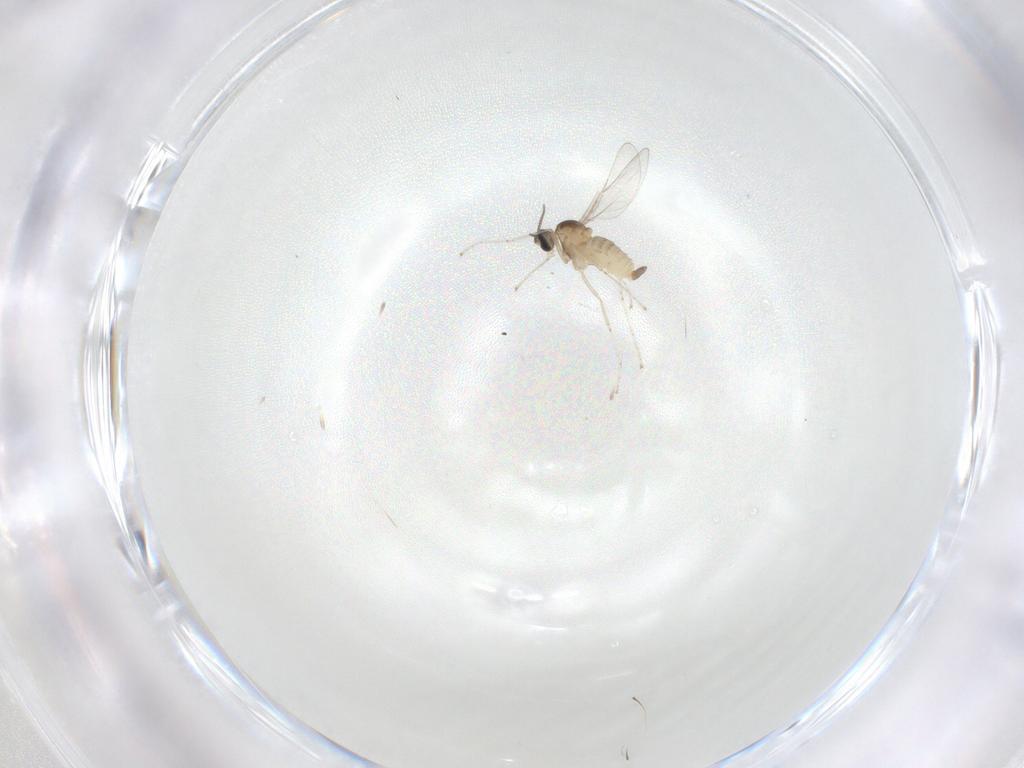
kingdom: Animalia
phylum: Arthropoda
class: Insecta
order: Diptera
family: Cecidomyiidae
